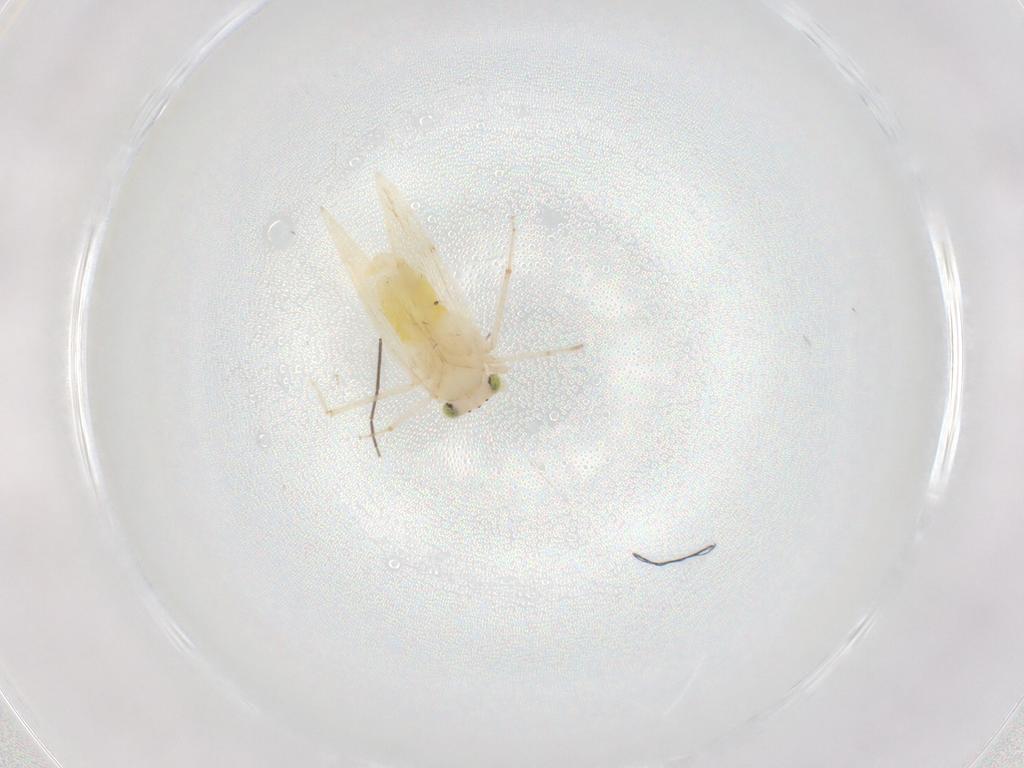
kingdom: Animalia
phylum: Arthropoda
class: Insecta
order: Psocodea
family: Lepidopsocidae
